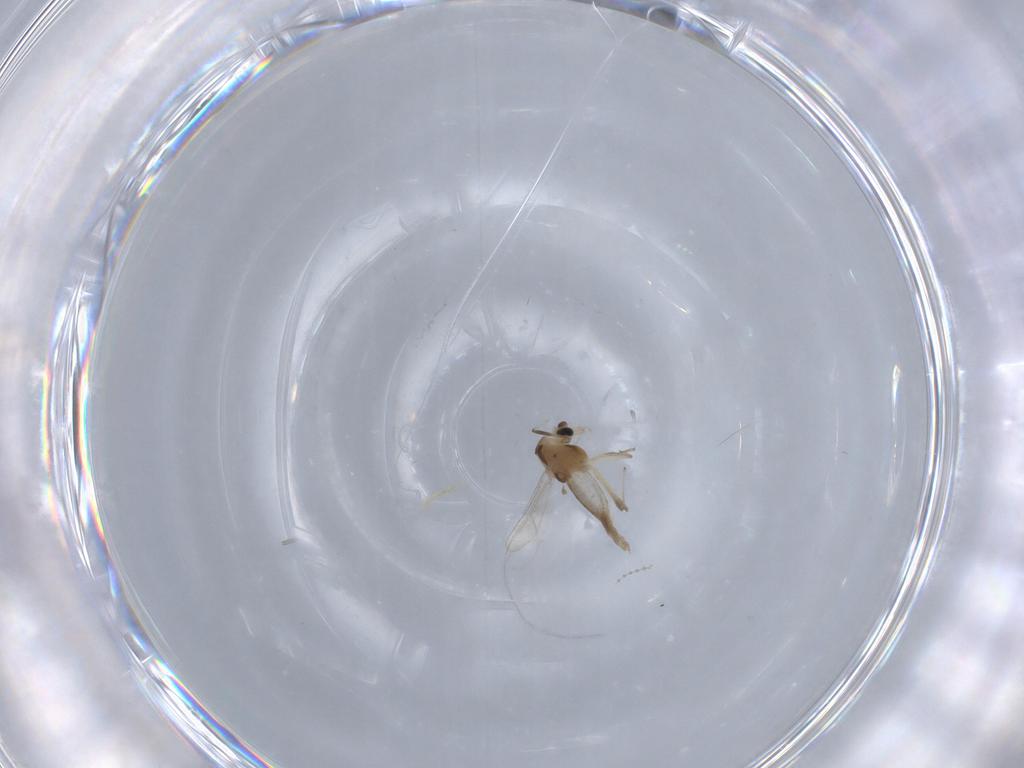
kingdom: Animalia
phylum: Arthropoda
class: Insecta
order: Diptera
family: Chironomidae
